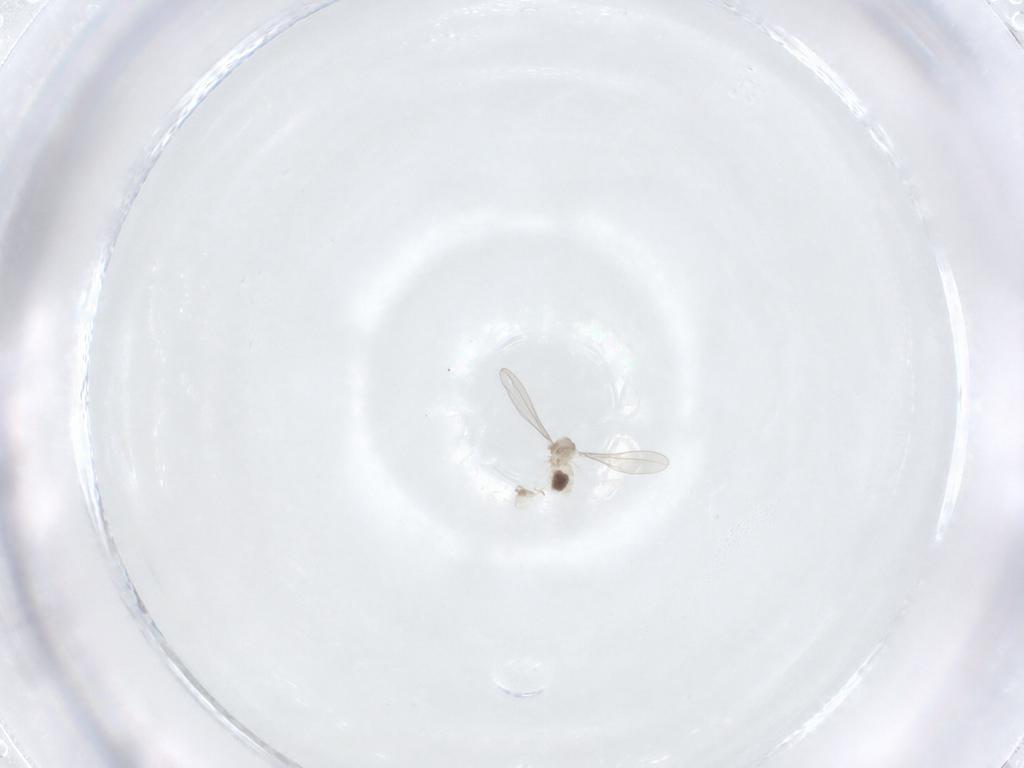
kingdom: Animalia
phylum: Arthropoda
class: Insecta
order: Diptera
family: Cecidomyiidae
